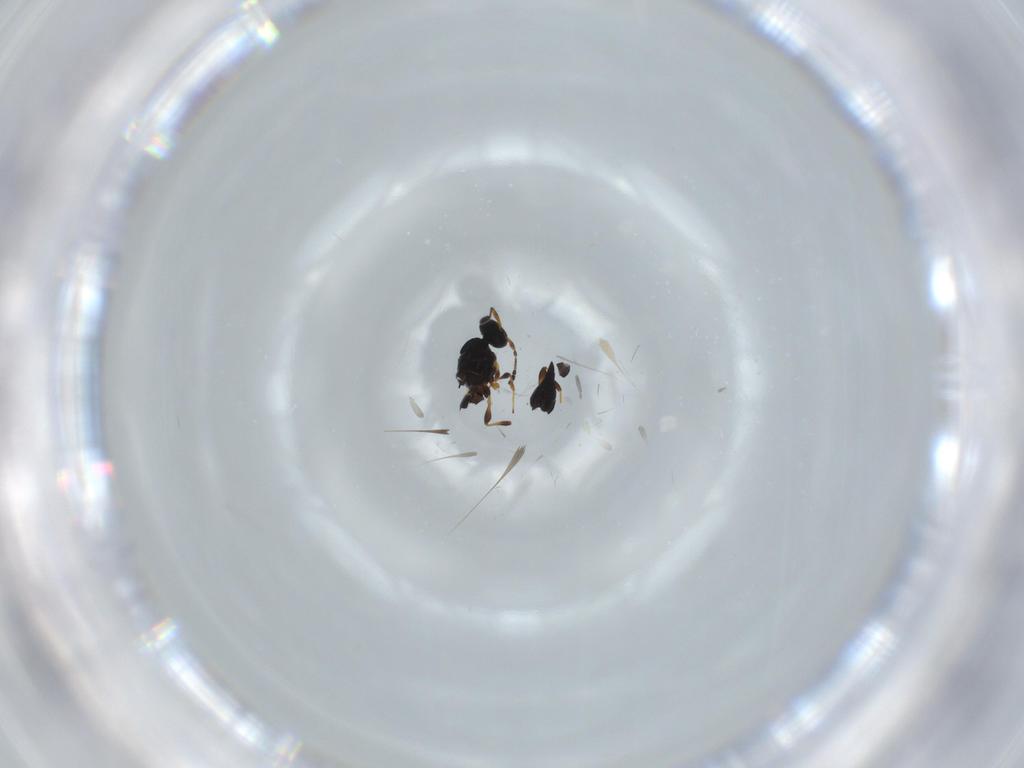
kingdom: Animalia
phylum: Arthropoda
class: Insecta
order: Hymenoptera
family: Platygastridae
